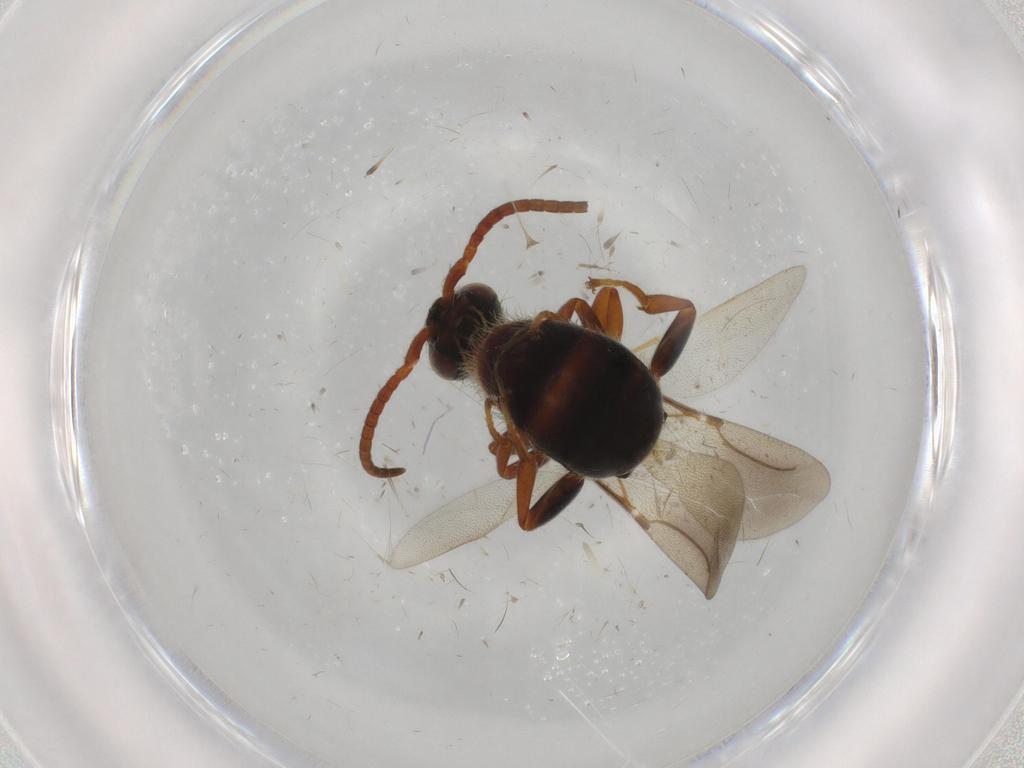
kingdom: Animalia
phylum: Arthropoda
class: Insecta
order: Hymenoptera
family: Bethylidae
